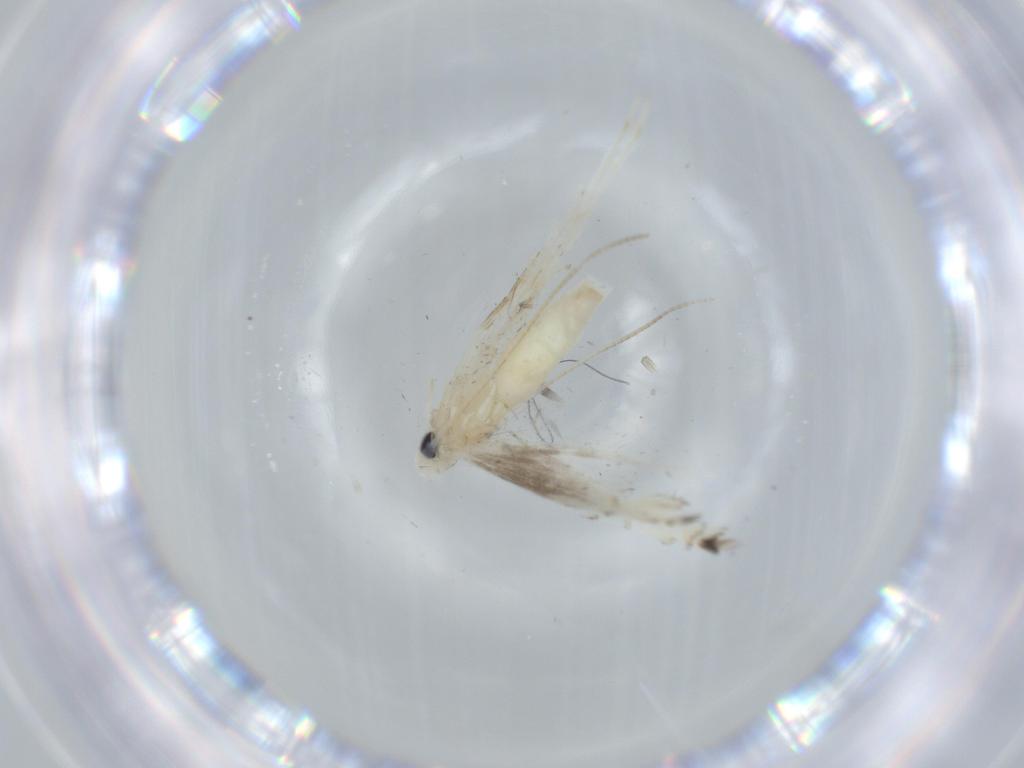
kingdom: Animalia
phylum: Arthropoda
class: Insecta
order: Lepidoptera
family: Gracillariidae
